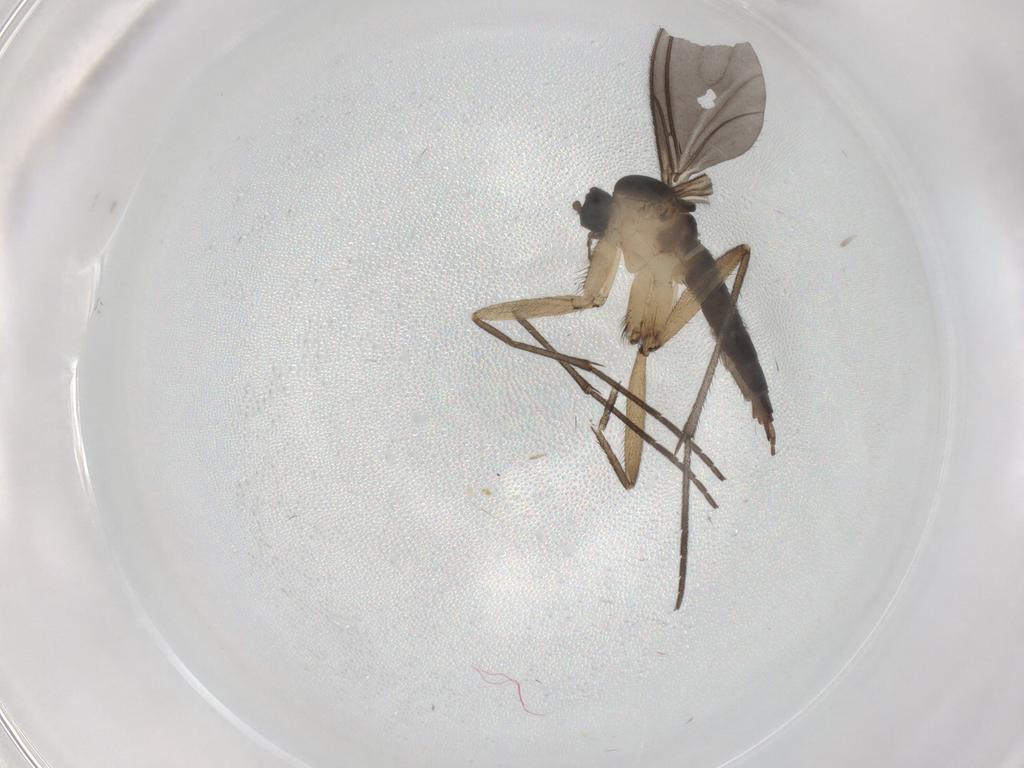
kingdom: Animalia
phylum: Arthropoda
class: Insecta
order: Diptera
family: Sciaridae
